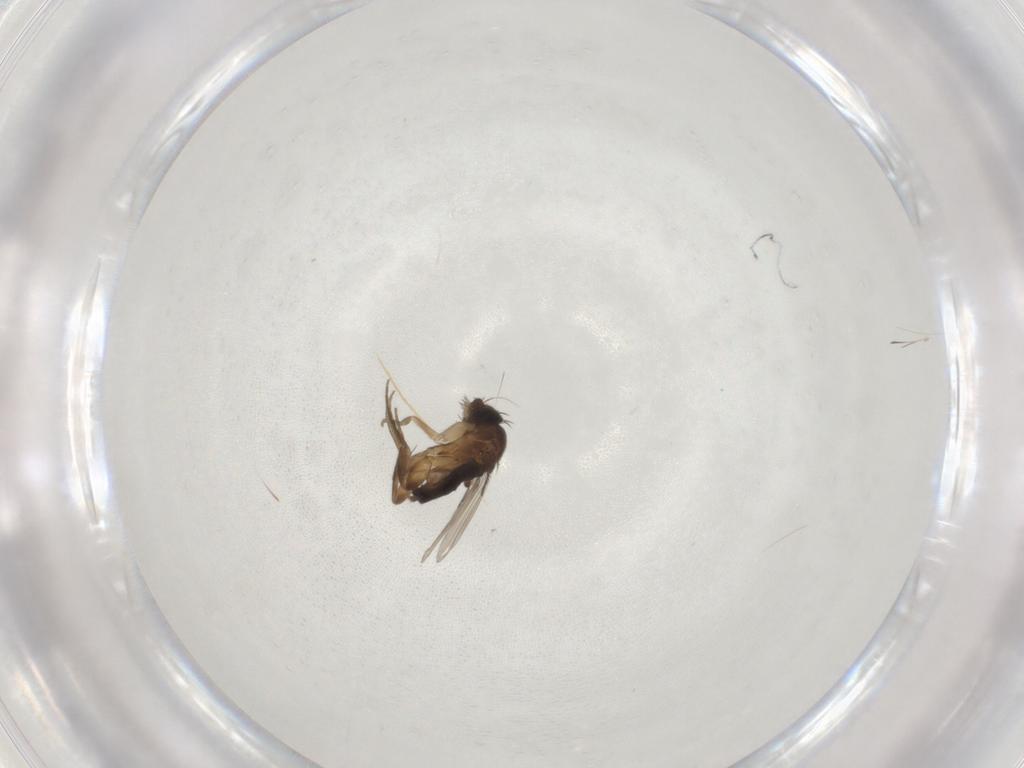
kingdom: Animalia
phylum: Arthropoda
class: Insecta
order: Diptera
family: Phoridae
